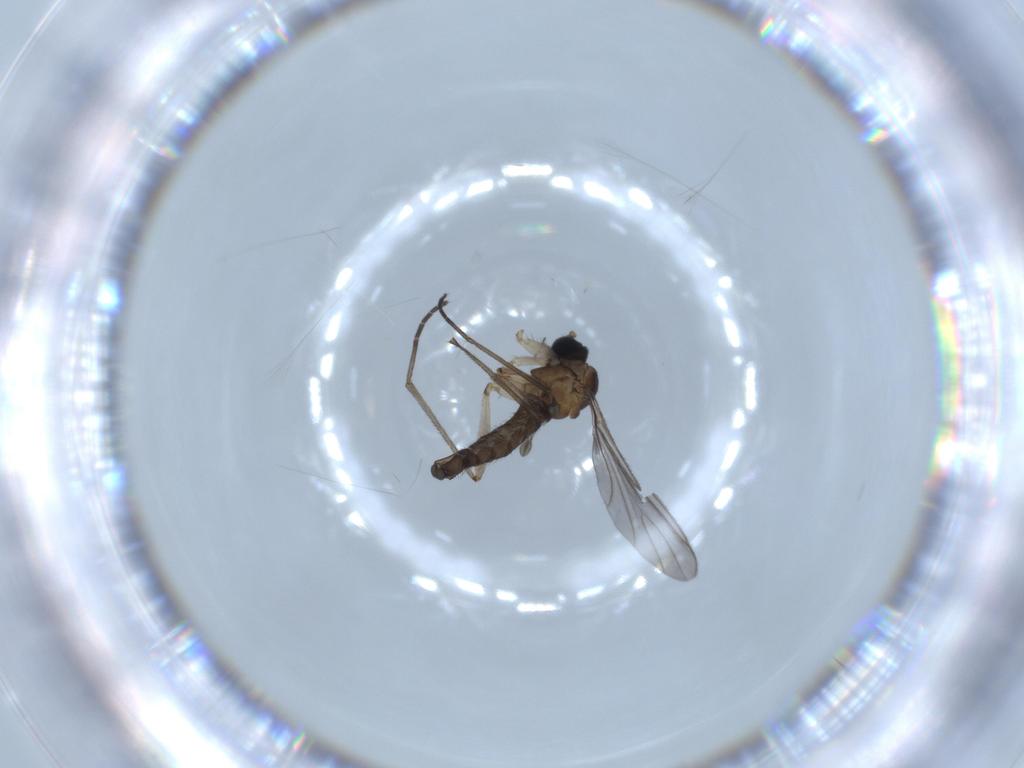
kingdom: Animalia
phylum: Arthropoda
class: Insecta
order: Diptera
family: Sciaridae
